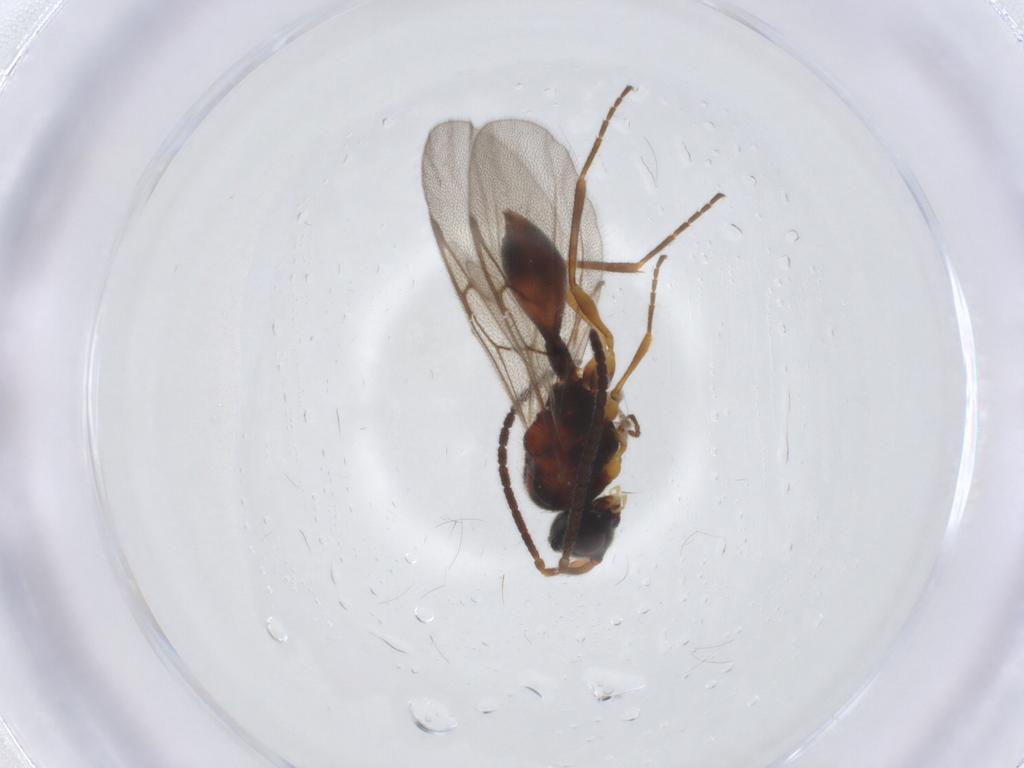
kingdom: Animalia
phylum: Arthropoda
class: Insecta
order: Hymenoptera
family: Diapriidae
